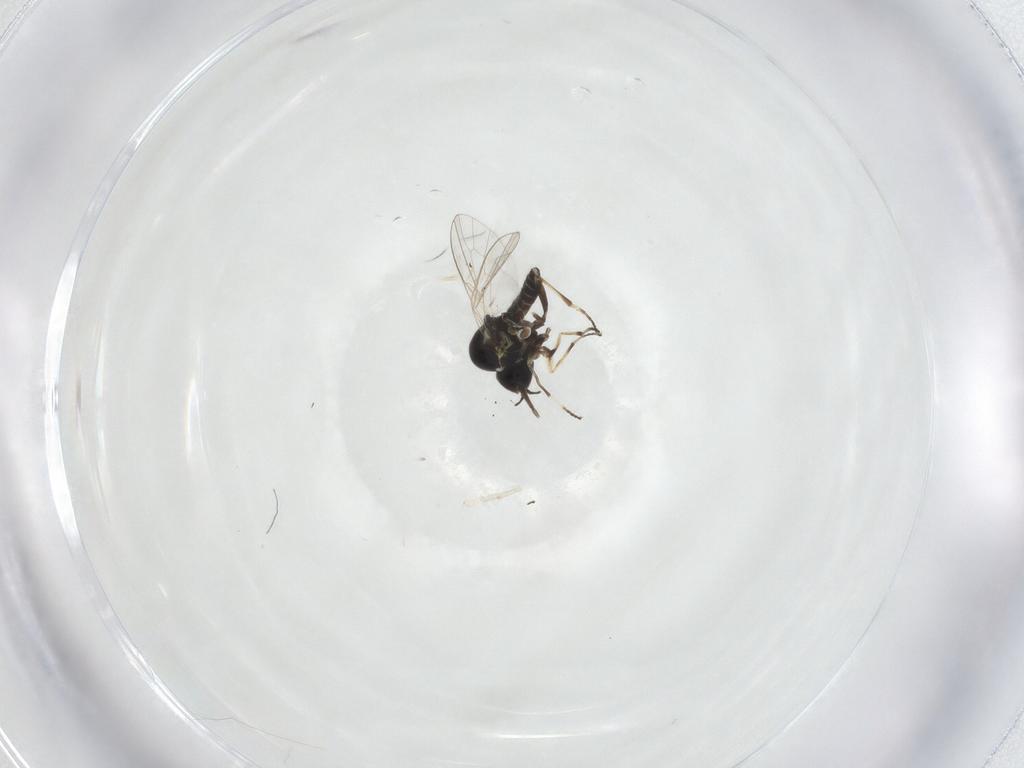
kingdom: Animalia
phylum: Arthropoda
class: Insecta
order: Diptera
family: Mythicomyiidae
